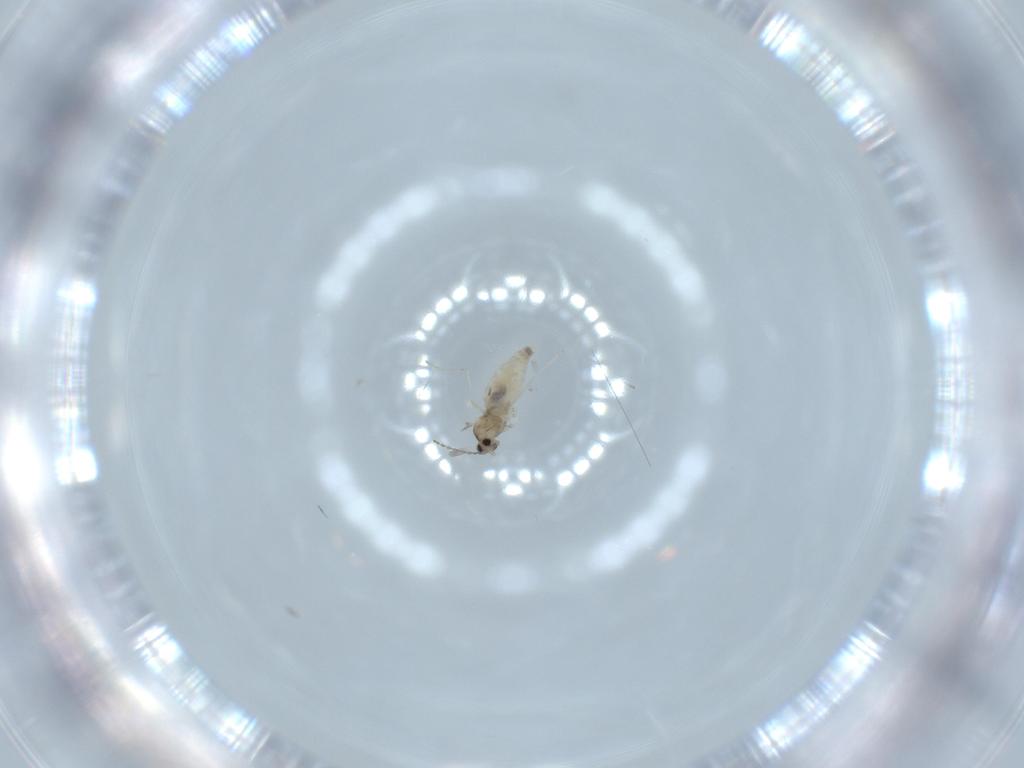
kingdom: Animalia
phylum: Arthropoda
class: Insecta
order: Diptera
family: Cecidomyiidae
